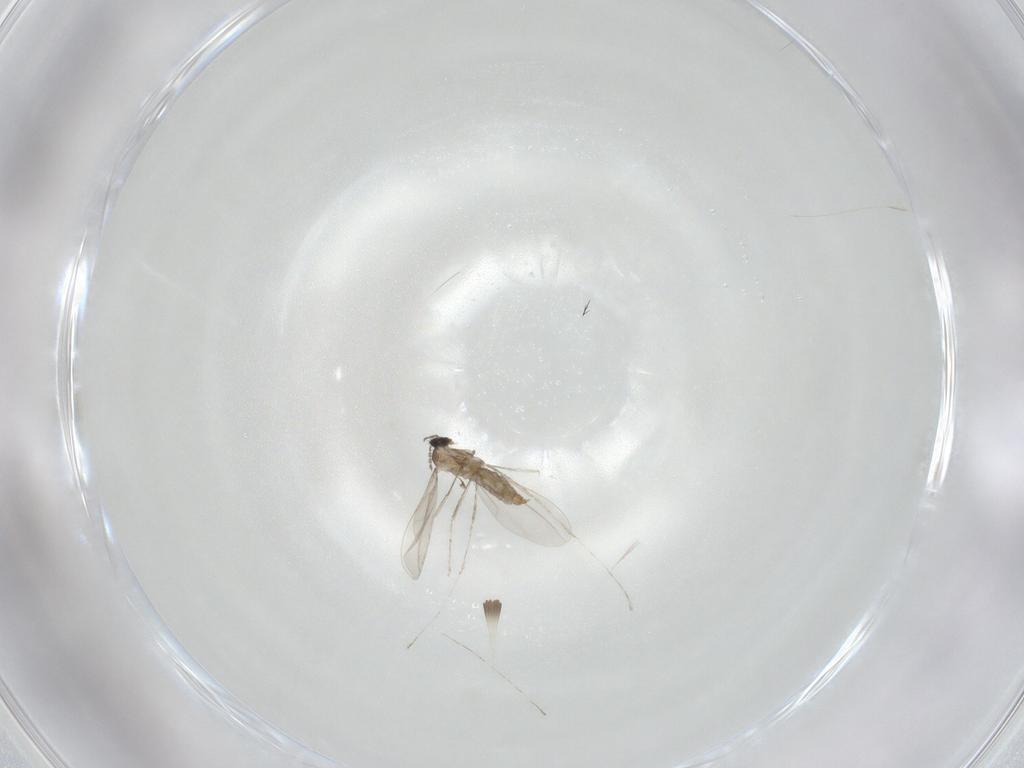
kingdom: Animalia
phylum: Arthropoda
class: Insecta
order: Diptera
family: Cecidomyiidae
